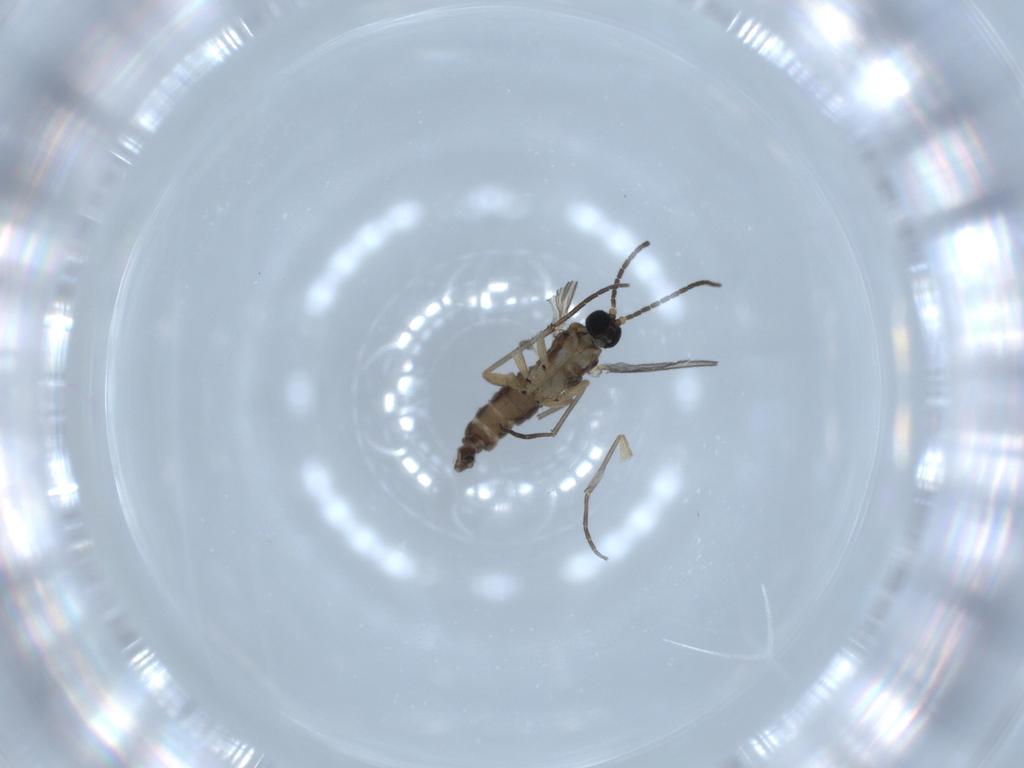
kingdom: Animalia
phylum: Arthropoda
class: Insecta
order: Diptera
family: Sciaridae
